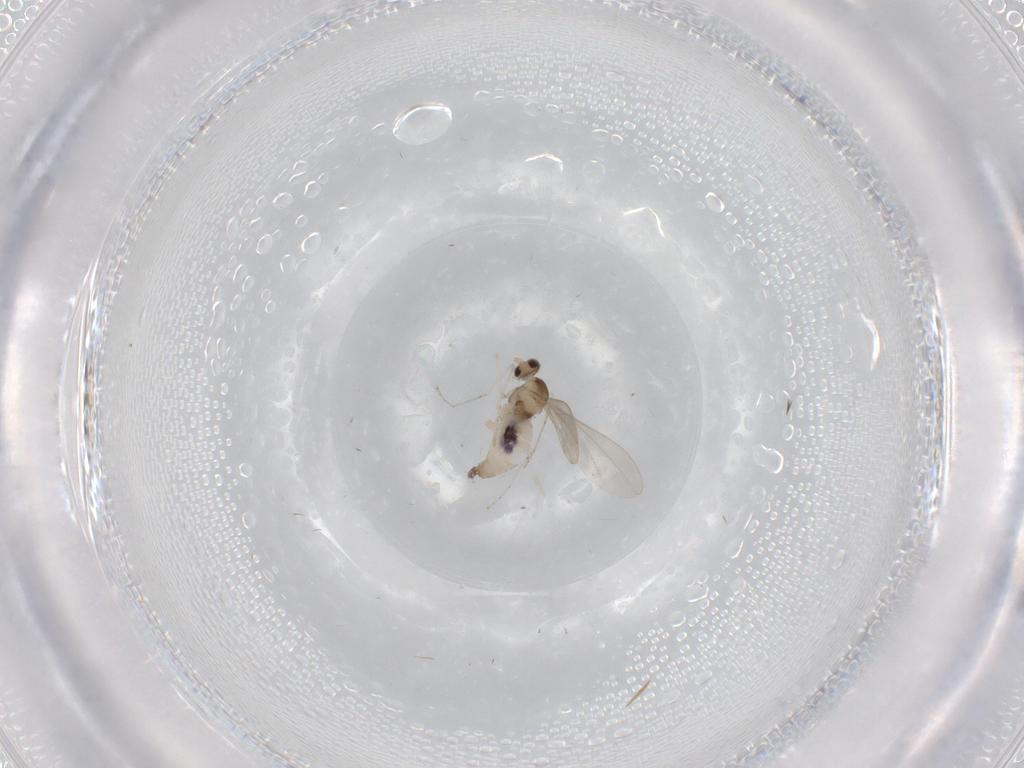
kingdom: Animalia
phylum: Arthropoda
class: Insecta
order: Diptera
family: Cecidomyiidae
